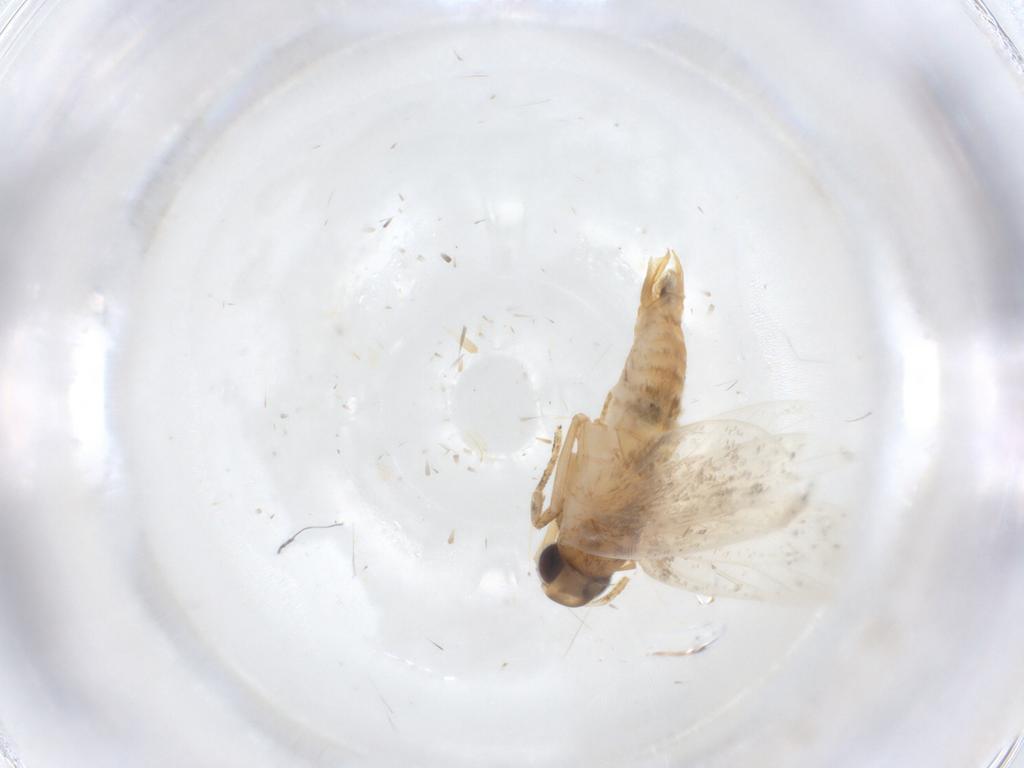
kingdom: Animalia
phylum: Arthropoda
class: Insecta
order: Lepidoptera
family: Oecophoridae
